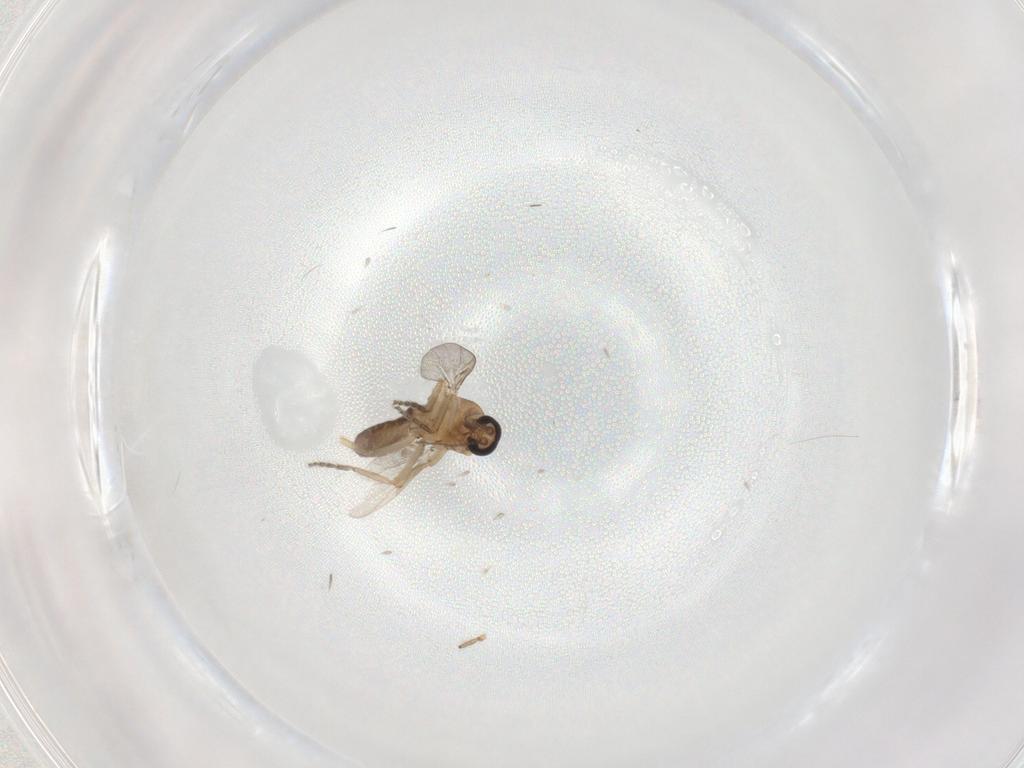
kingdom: Animalia
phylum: Arthropoda
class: Insecta
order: Diptera
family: Ceratopogonidae
